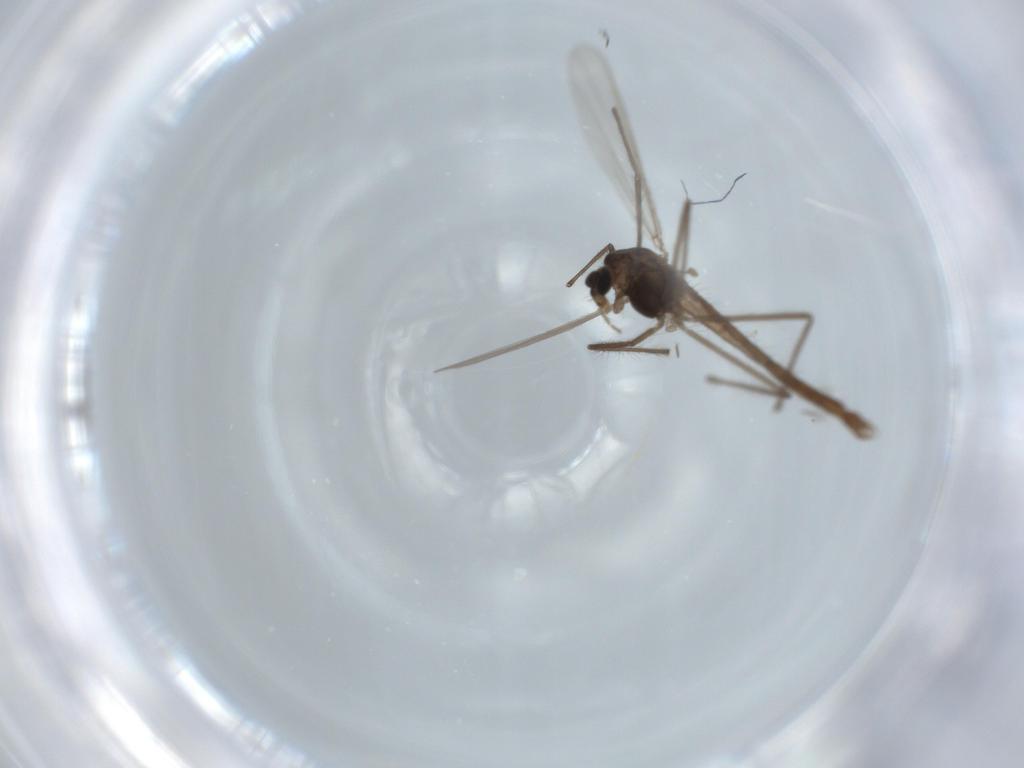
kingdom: Animalia
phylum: Arthropoda
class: Insecta
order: Diptera
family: Chironomidae
